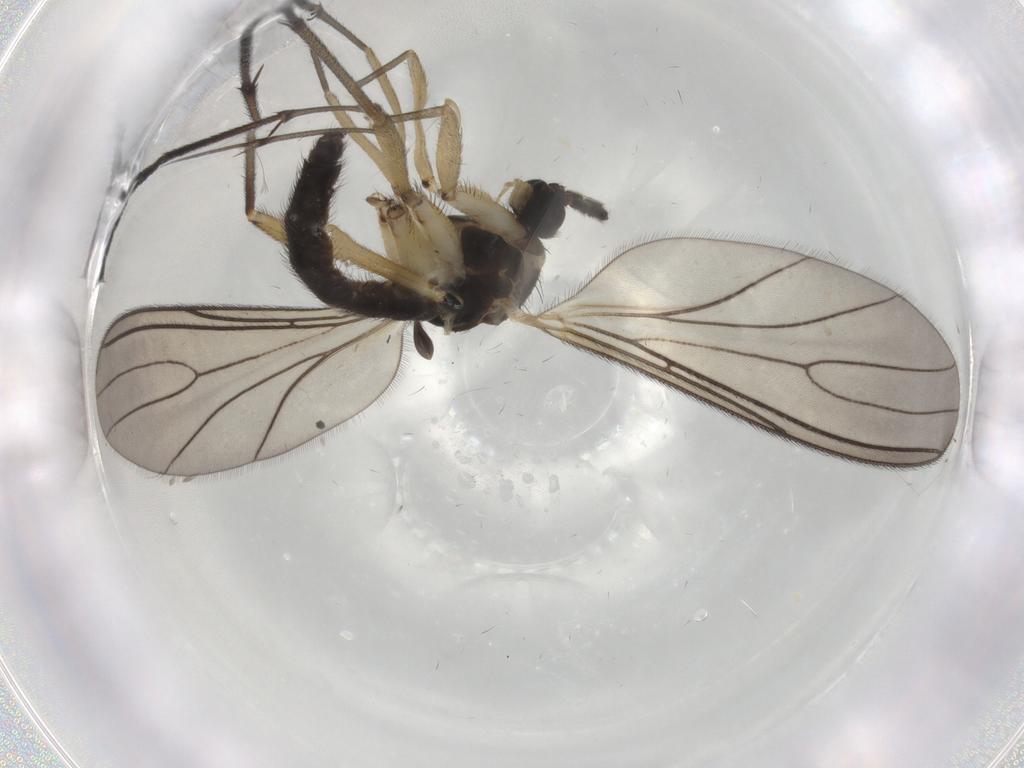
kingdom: Animalia
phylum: Arthropoda
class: Insecta
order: Diptera
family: Sciaridae
